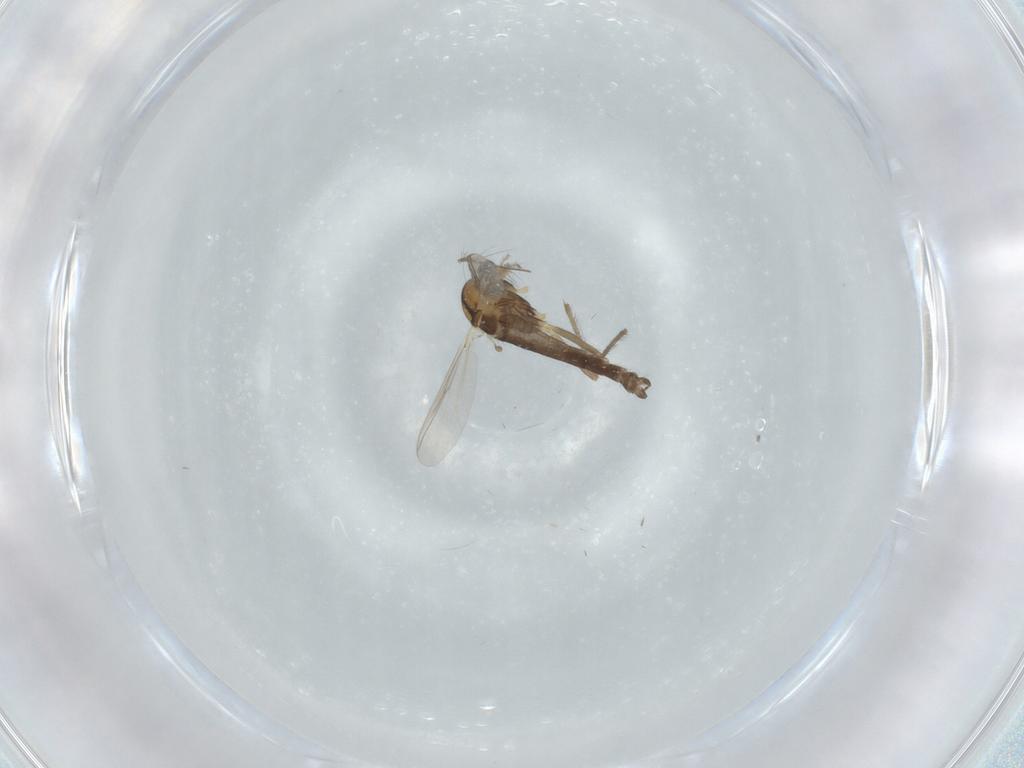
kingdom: Animalia
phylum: Arthropoda
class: Insecta
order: Diptera
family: Chironomidae
